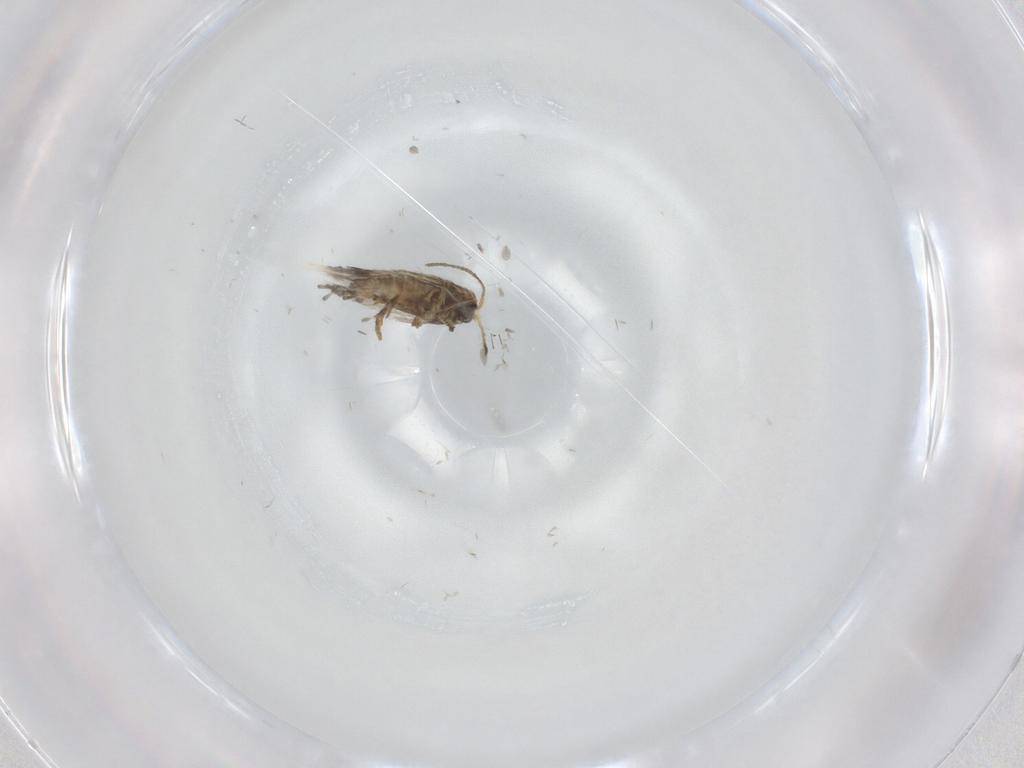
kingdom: Animalia
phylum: Arthropoda
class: Insecta
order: Lepidoptera
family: Nepticulidae
